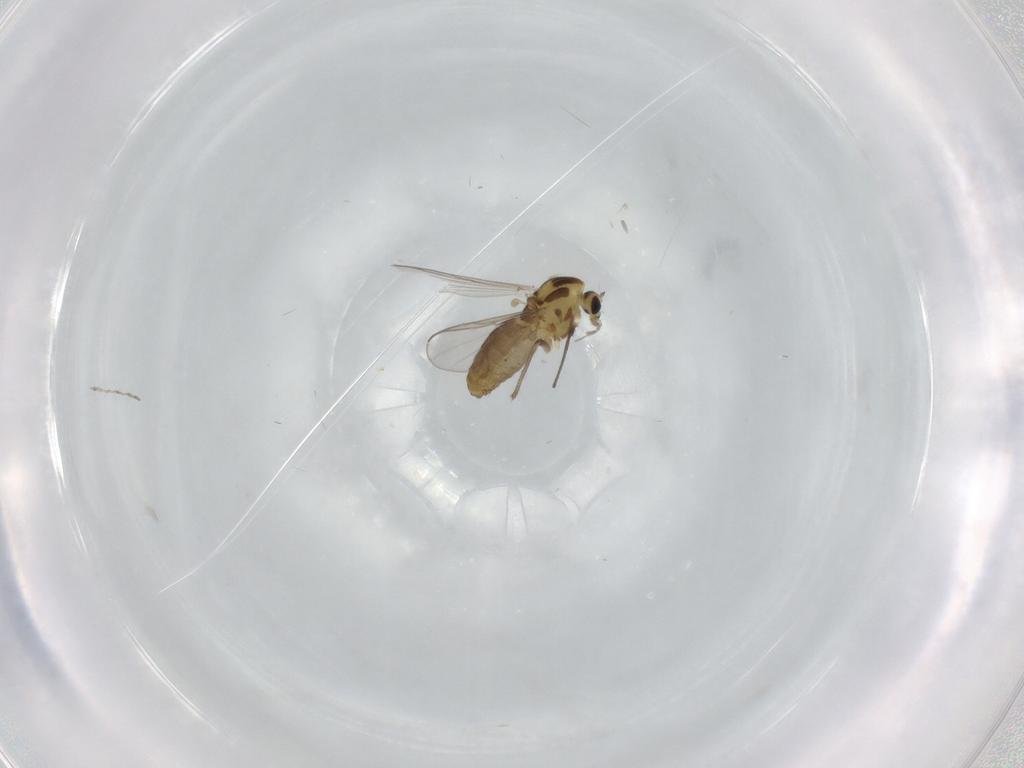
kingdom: Animalia
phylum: Arthropoda
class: Insecta
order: Diptera
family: Chironomidae
